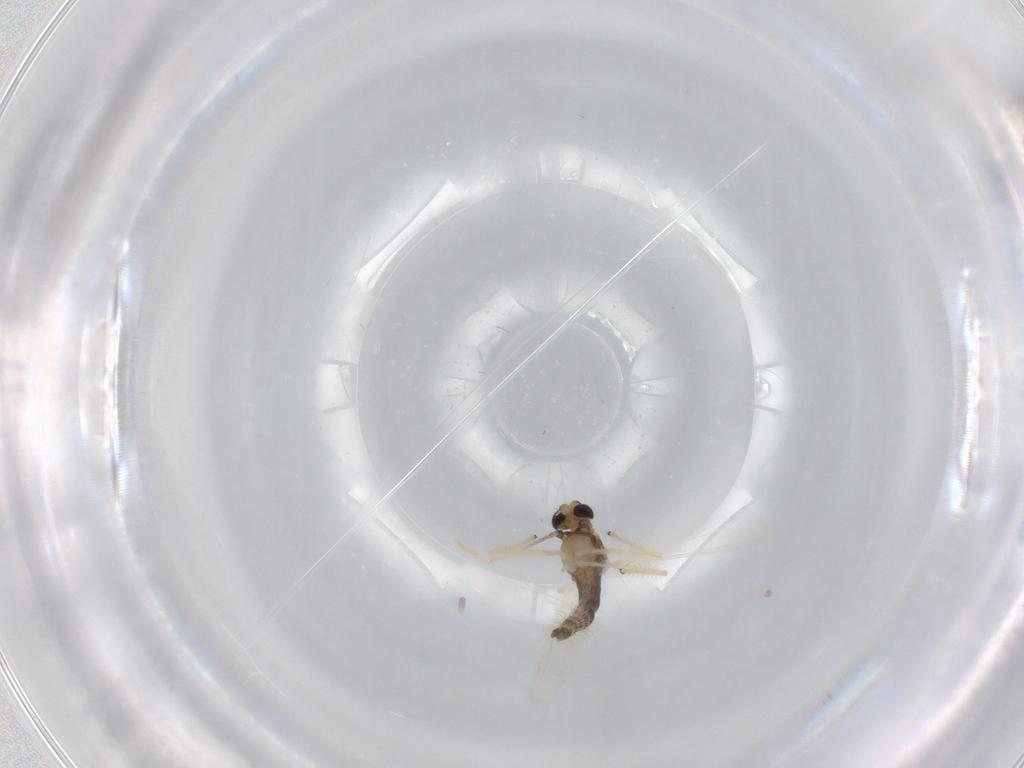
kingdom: Animalia
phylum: Arthropoda
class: Insecta
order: Diptera
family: Chironomidae
